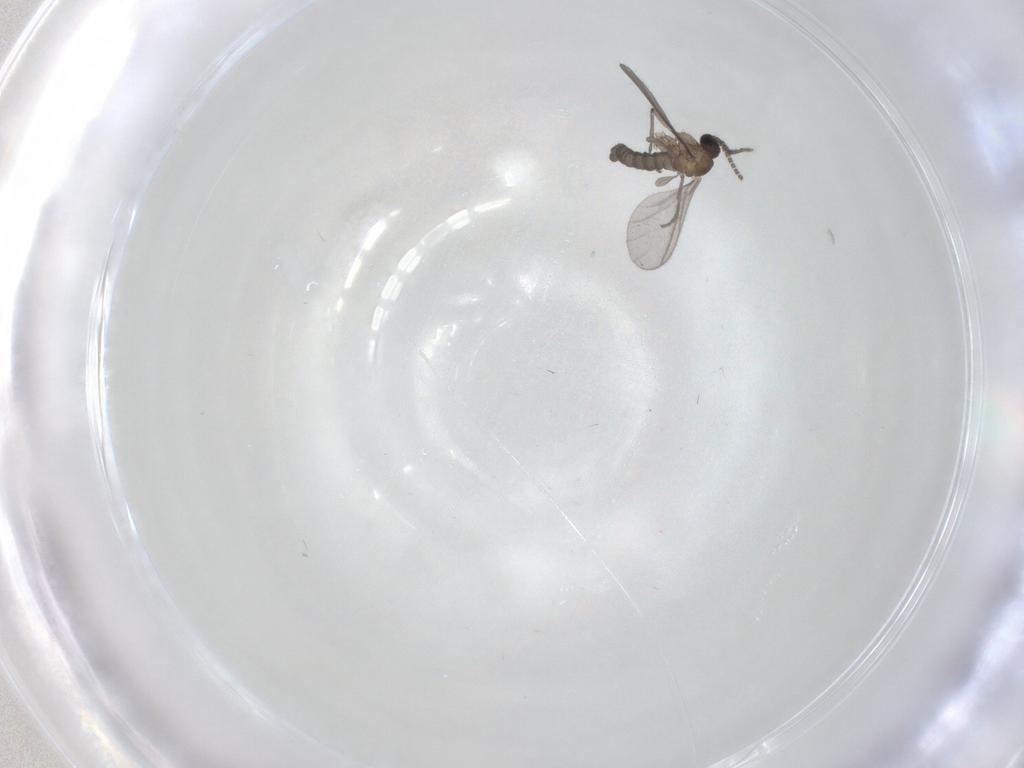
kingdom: Animalia
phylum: Arthropoda
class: Insecta
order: Diptera
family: Sciaridae
